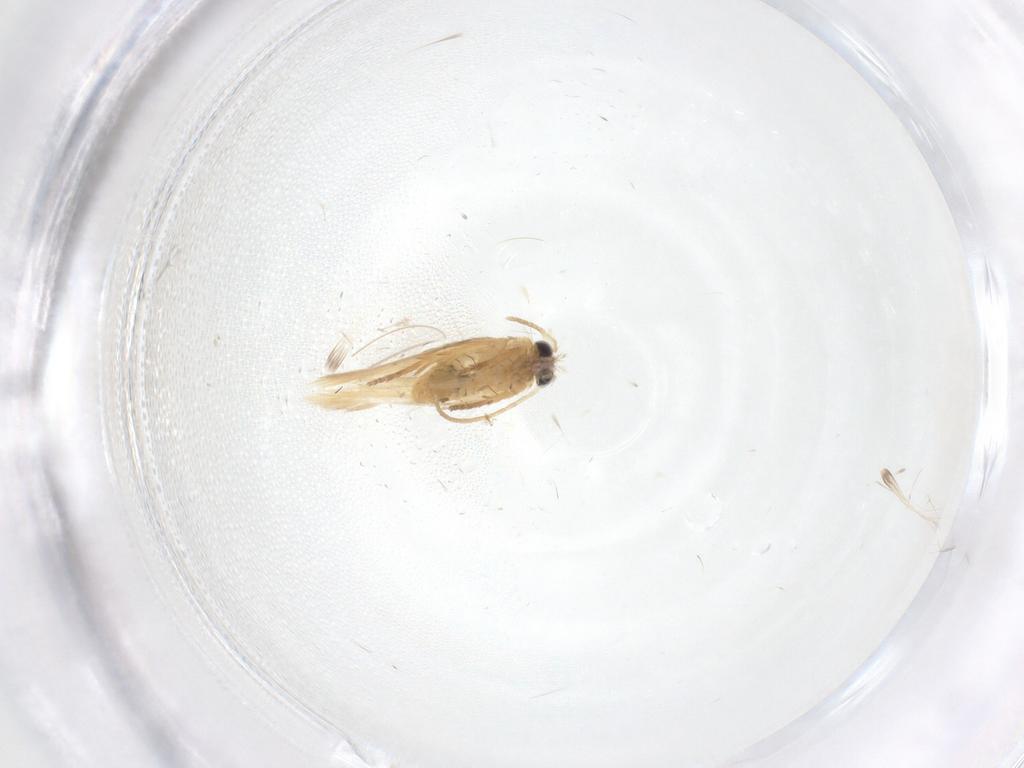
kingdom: Animalia
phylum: Arthropoda
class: Insecta
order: Lepidoptera
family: Nepticulidae
